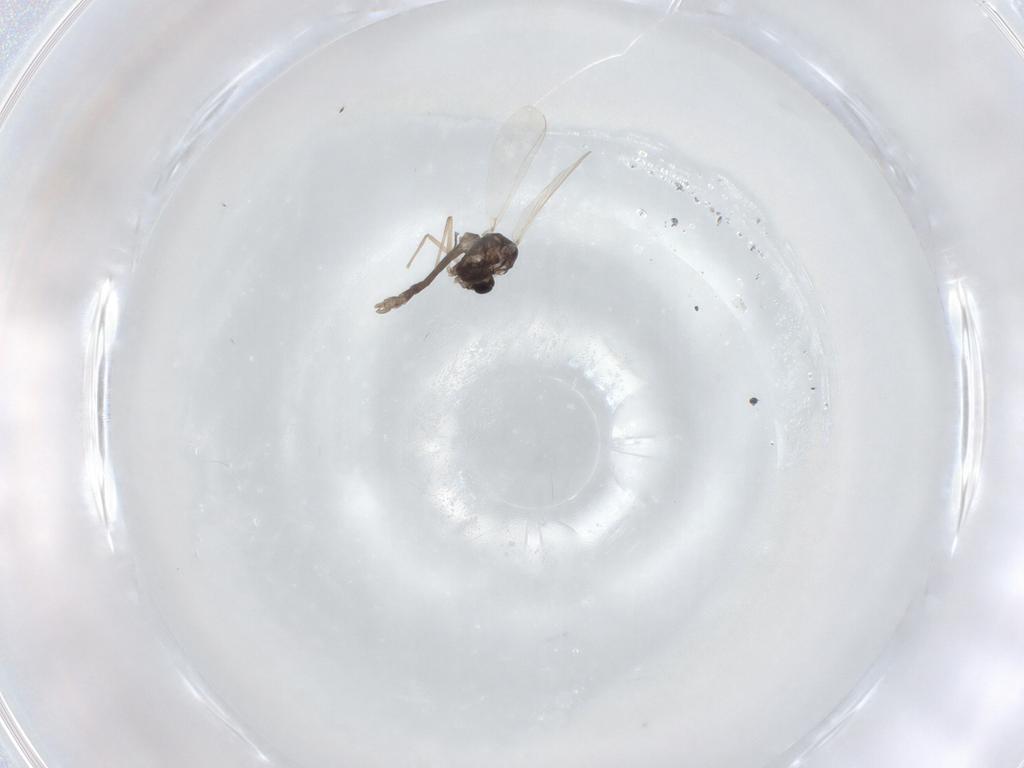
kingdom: Animalia
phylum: Arthropoda
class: Insecta
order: Diptera
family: Chironomidae
